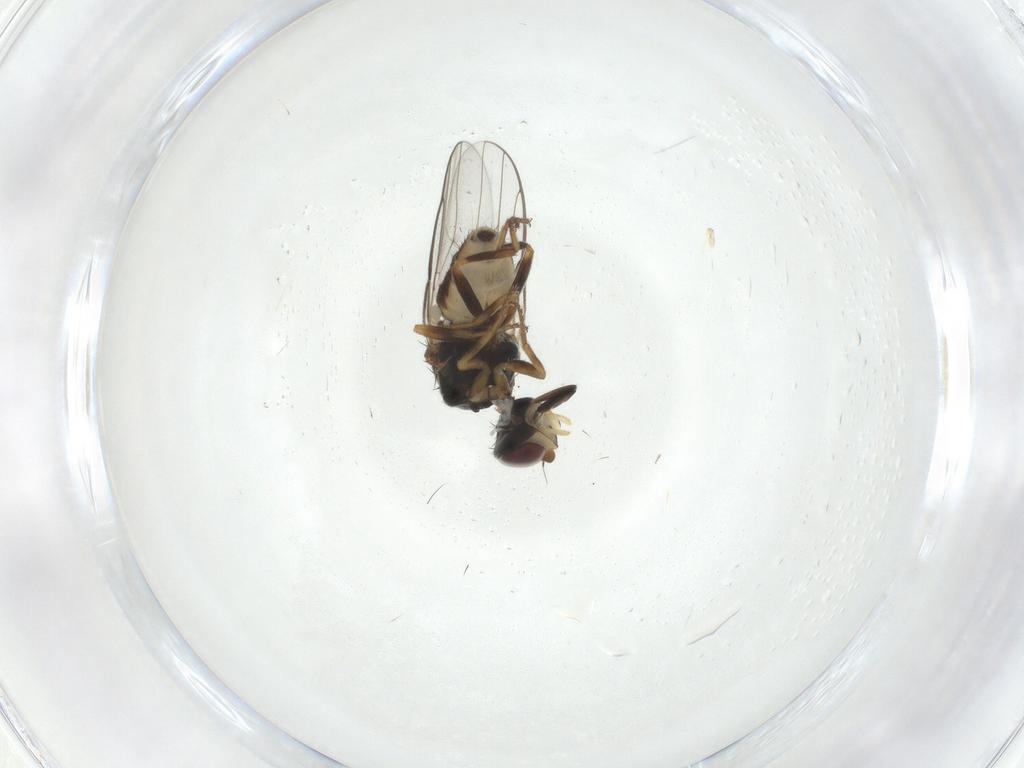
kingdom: Animalia
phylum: Arthropoda
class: Insecta
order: Diptera
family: Chloropidae
